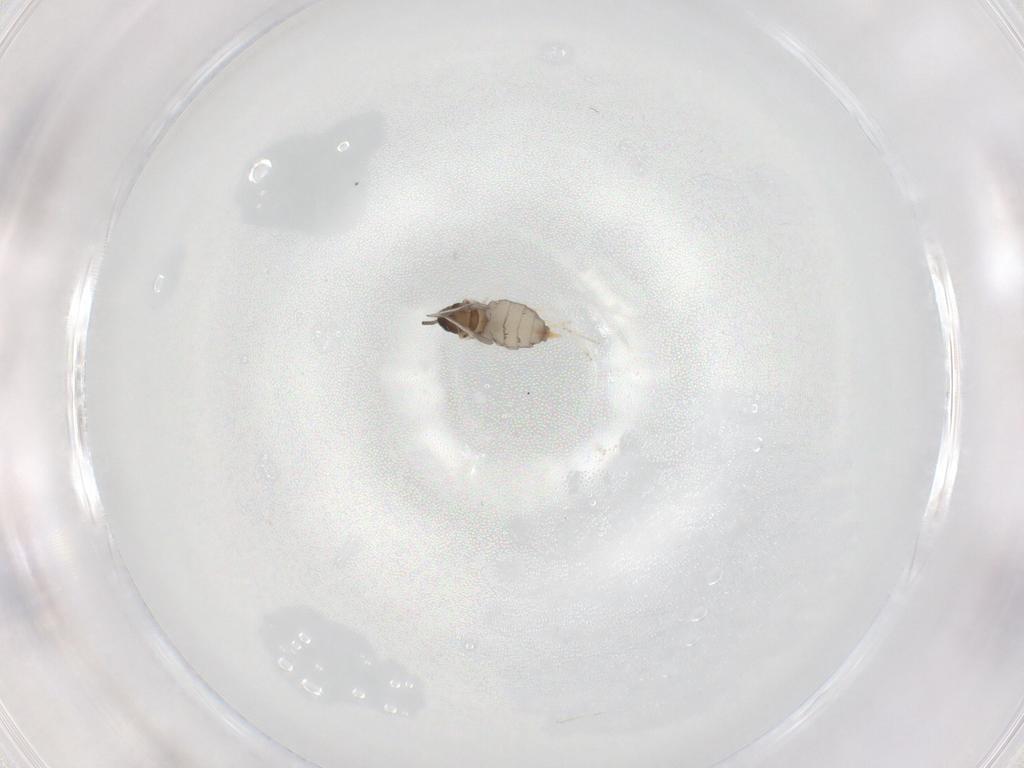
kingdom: Animalia
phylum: Arthropoda
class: Insecta
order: Diptera
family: Cecidomyiidae
